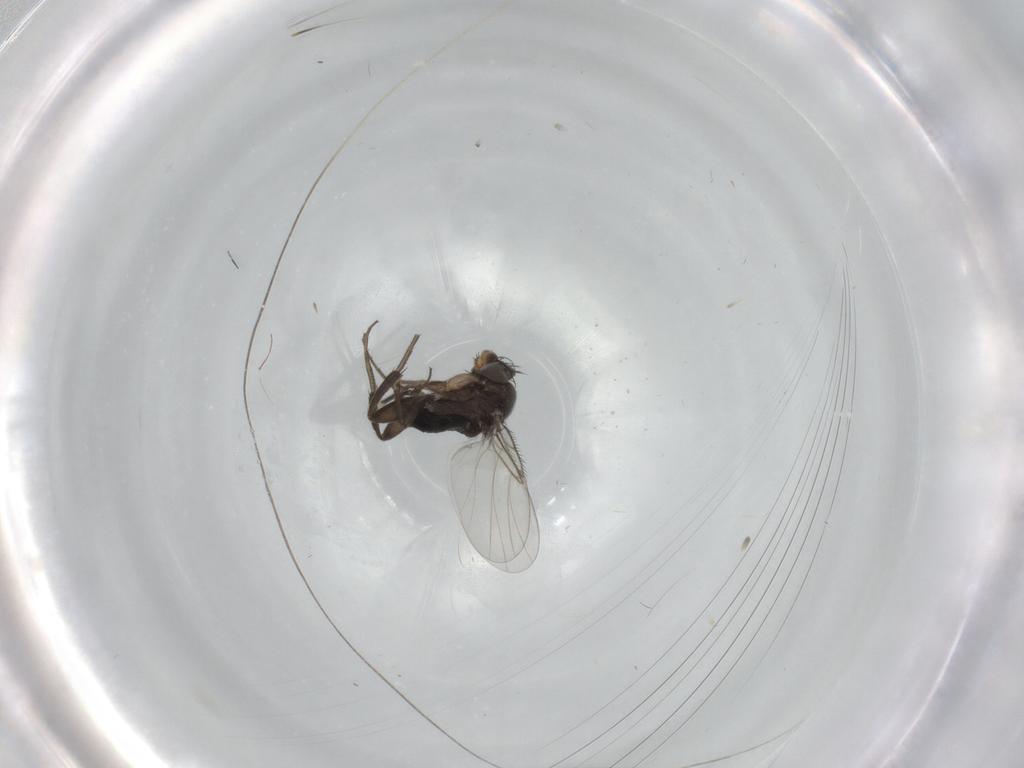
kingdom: Animalia
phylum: Arthropoda
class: Insecta
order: Diptera
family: Phoridae
